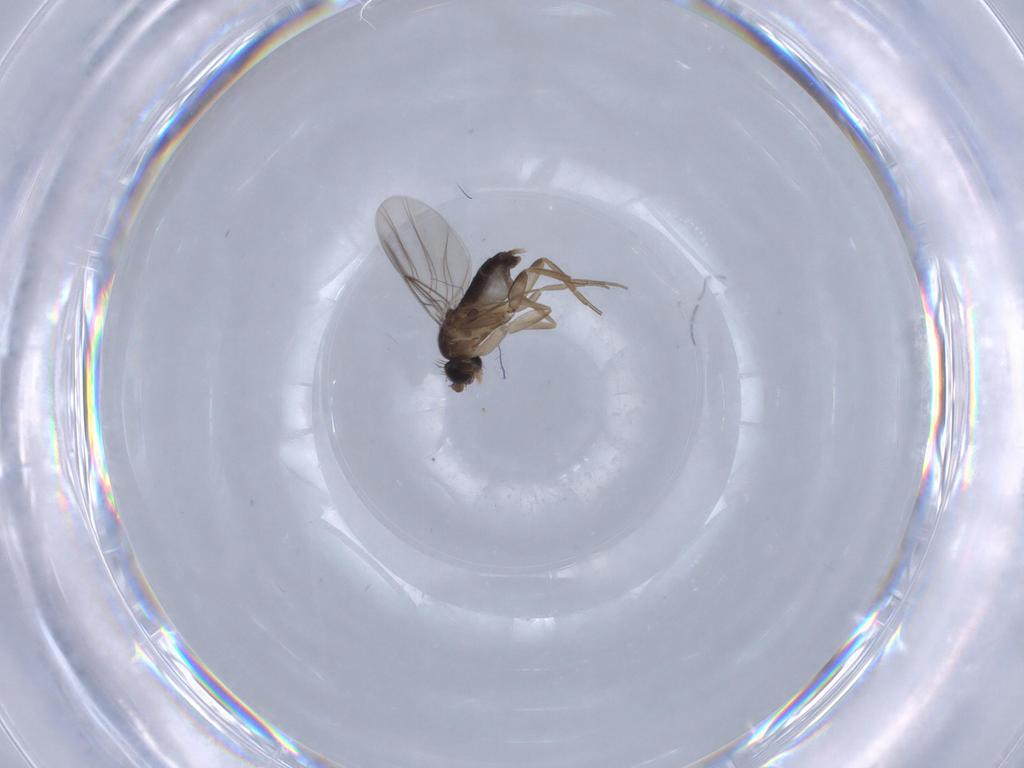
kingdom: Animalia
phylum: Arthropoda
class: Insecta
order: Diptera
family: Phoridae
